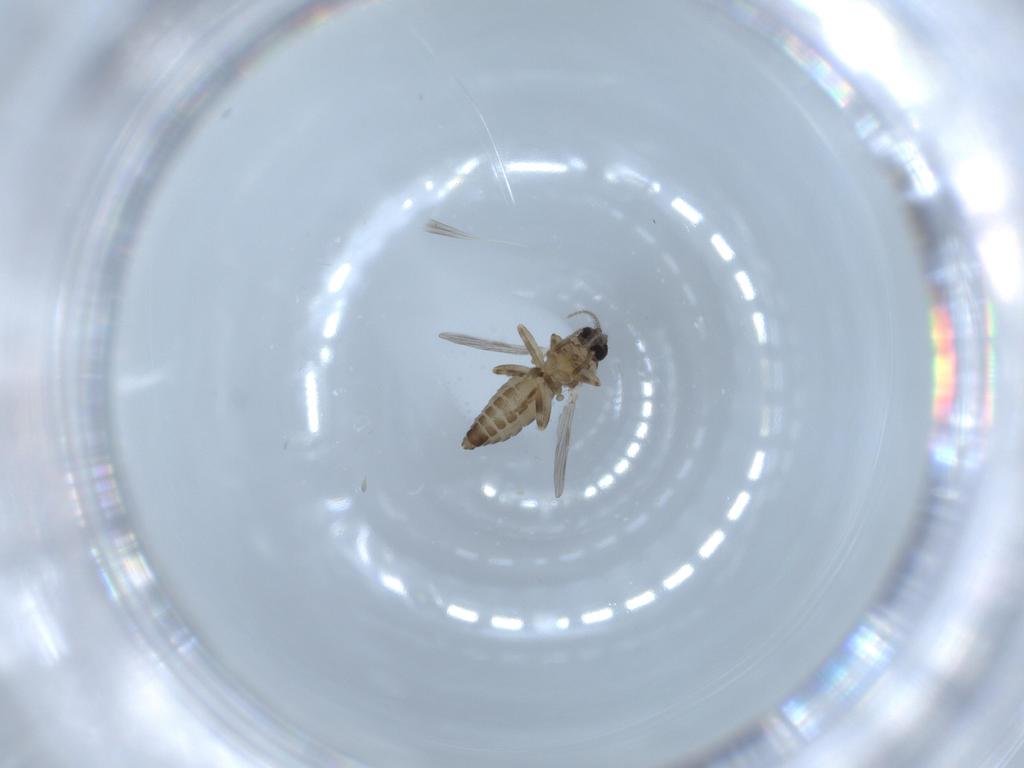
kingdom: Animalia
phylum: Arthropoda
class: Insecta
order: Diptera
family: Ceratopogonidae
